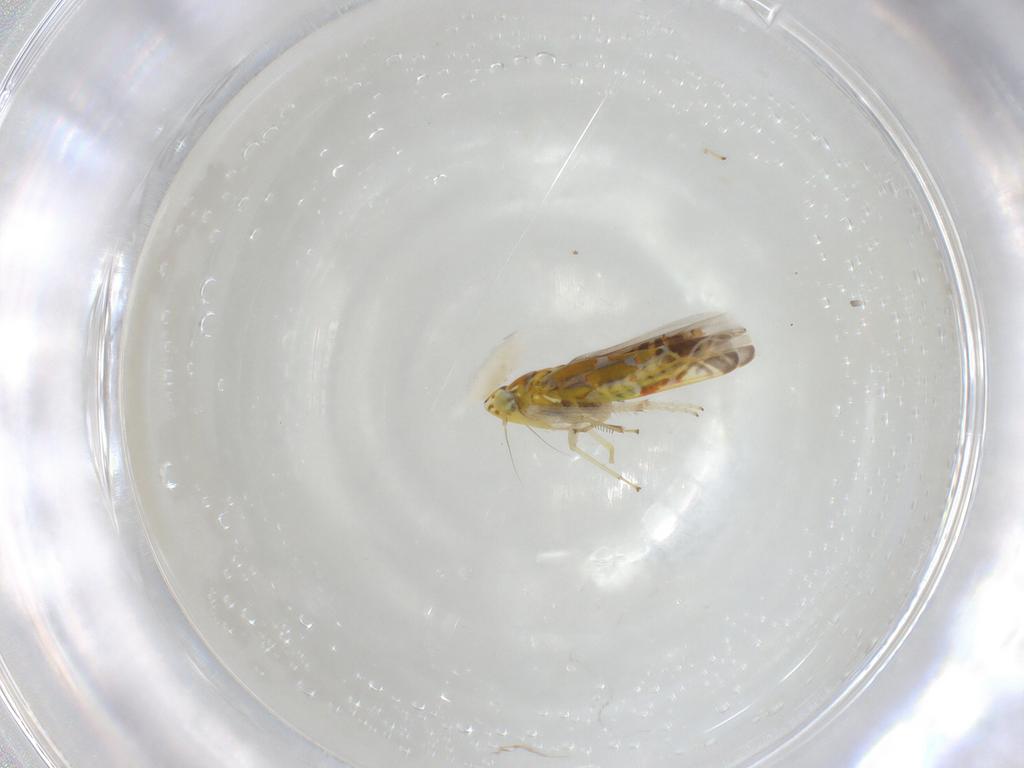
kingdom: Animalia
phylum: Arthropoda
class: Insecta
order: Hemiptera
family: Cicadellidae
